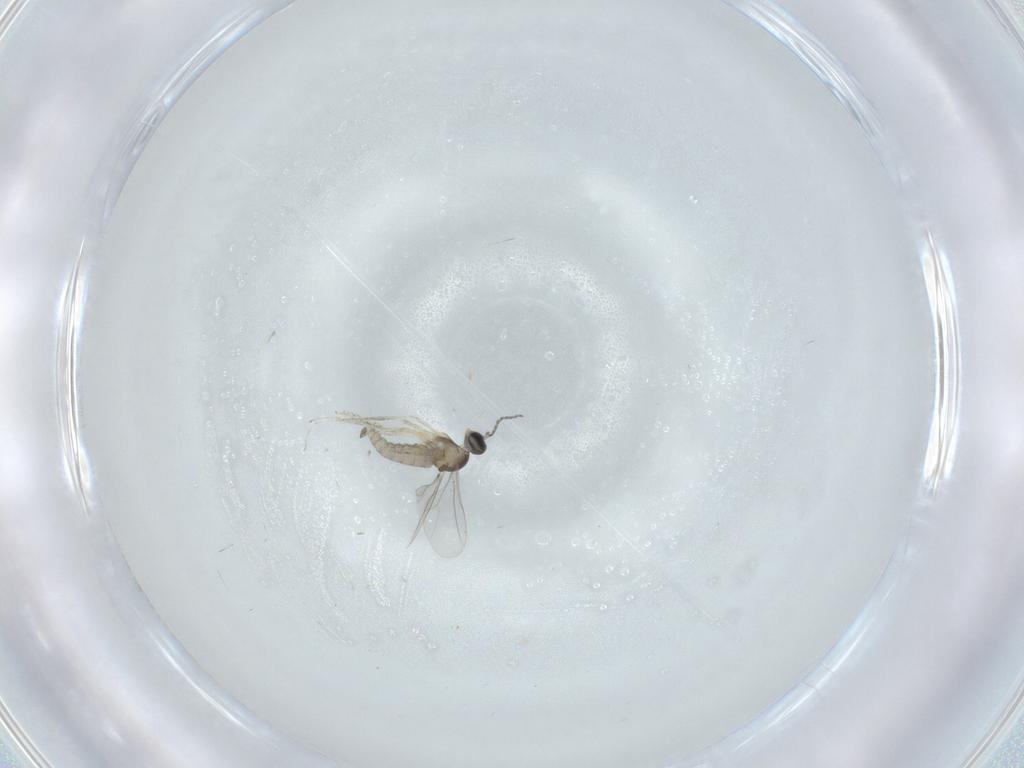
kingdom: Animalia
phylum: Arthropoda
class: Insecta
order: Diptera
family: Cecidomyiidae
